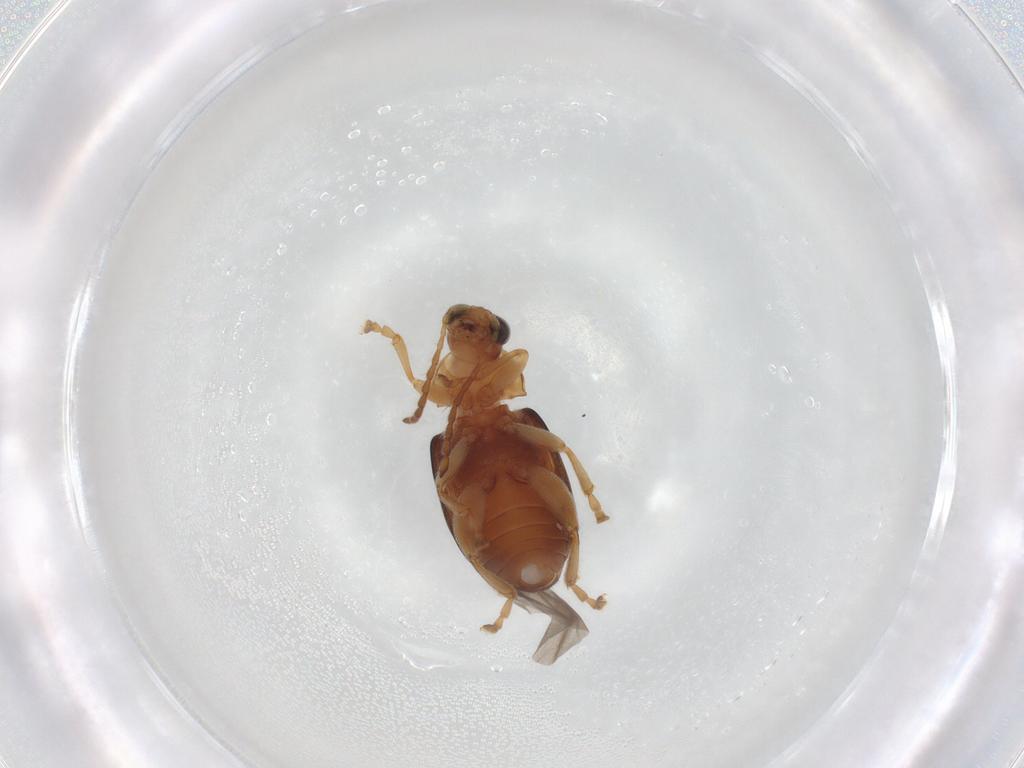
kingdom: Animalia
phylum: Arthropoda
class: Insecta
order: Coleoptera
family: Chrysomelidae
